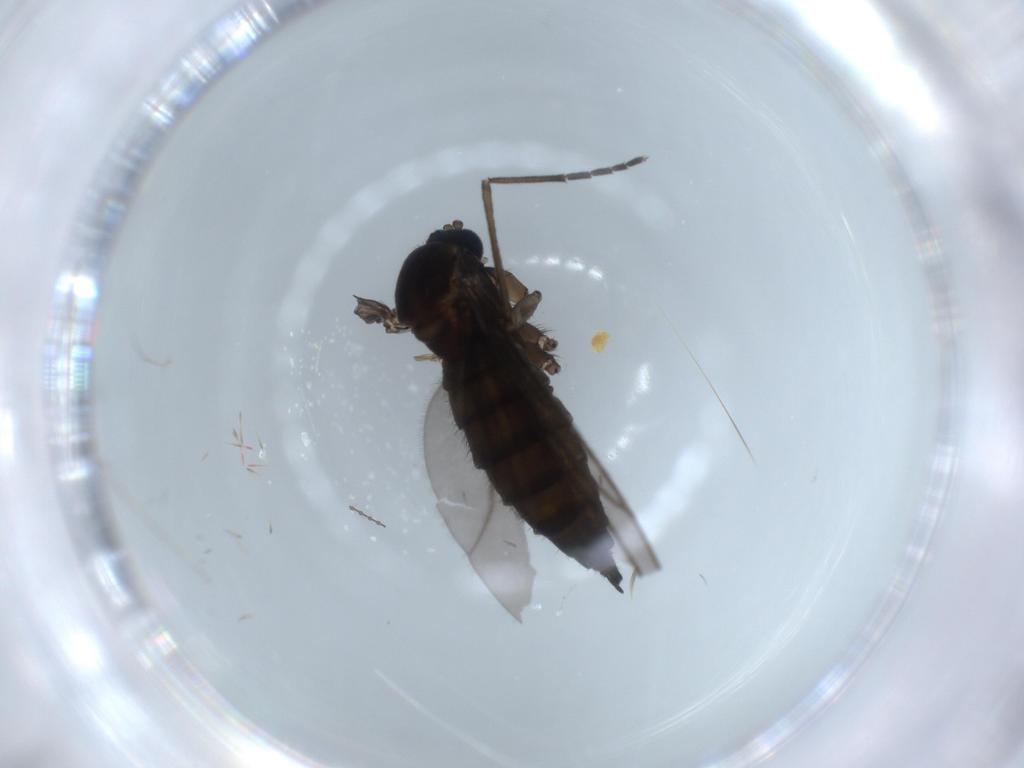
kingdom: Animalia
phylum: Arthropoda
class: Insecta
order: Diptera
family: Sciaridae
